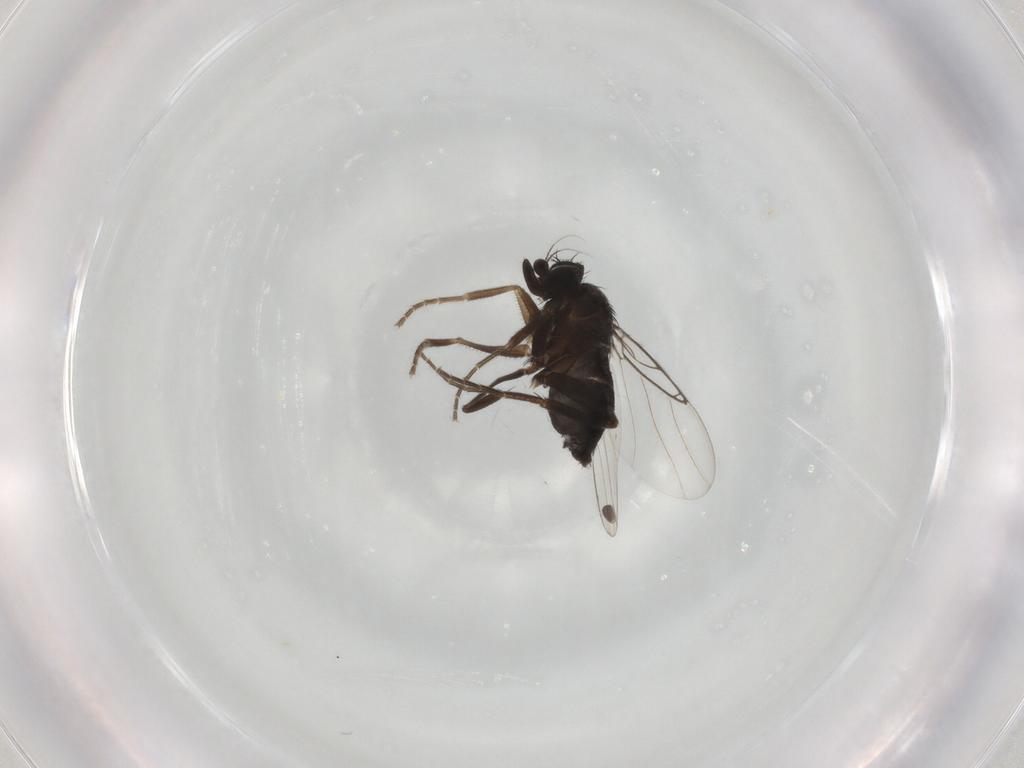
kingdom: Animalia
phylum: Arthropoda
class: Insecta
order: Diptera
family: Phoridae
